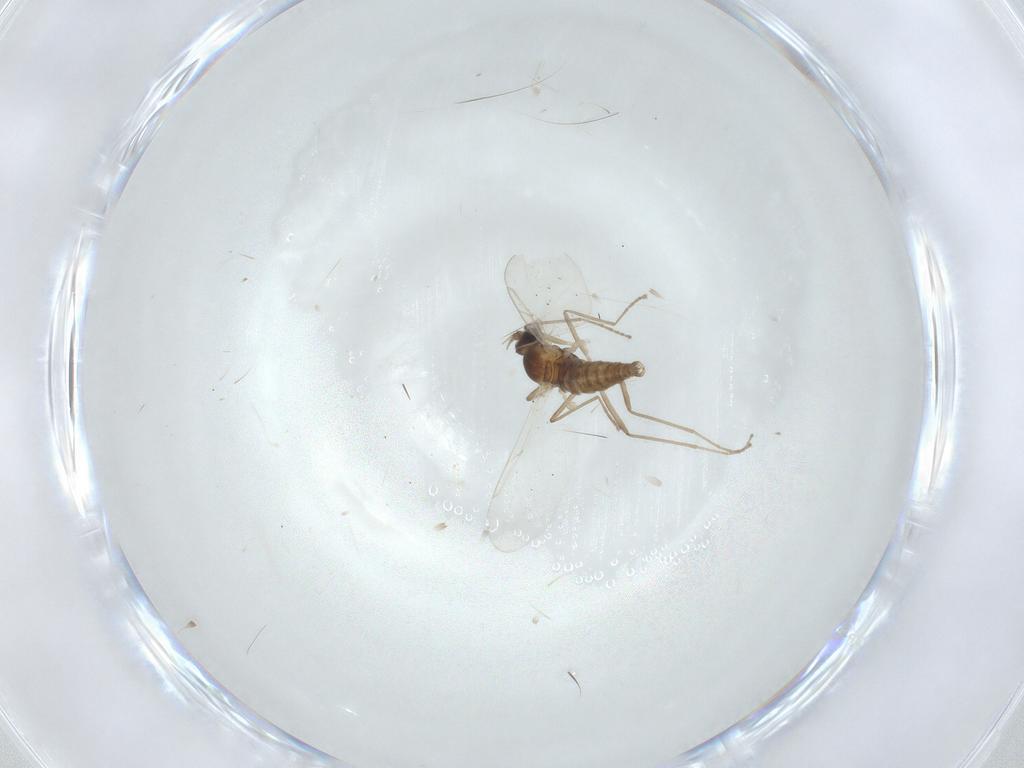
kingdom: Animalia
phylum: Arthropoda
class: Insecta
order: Diptera
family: Cecidomyiidae
